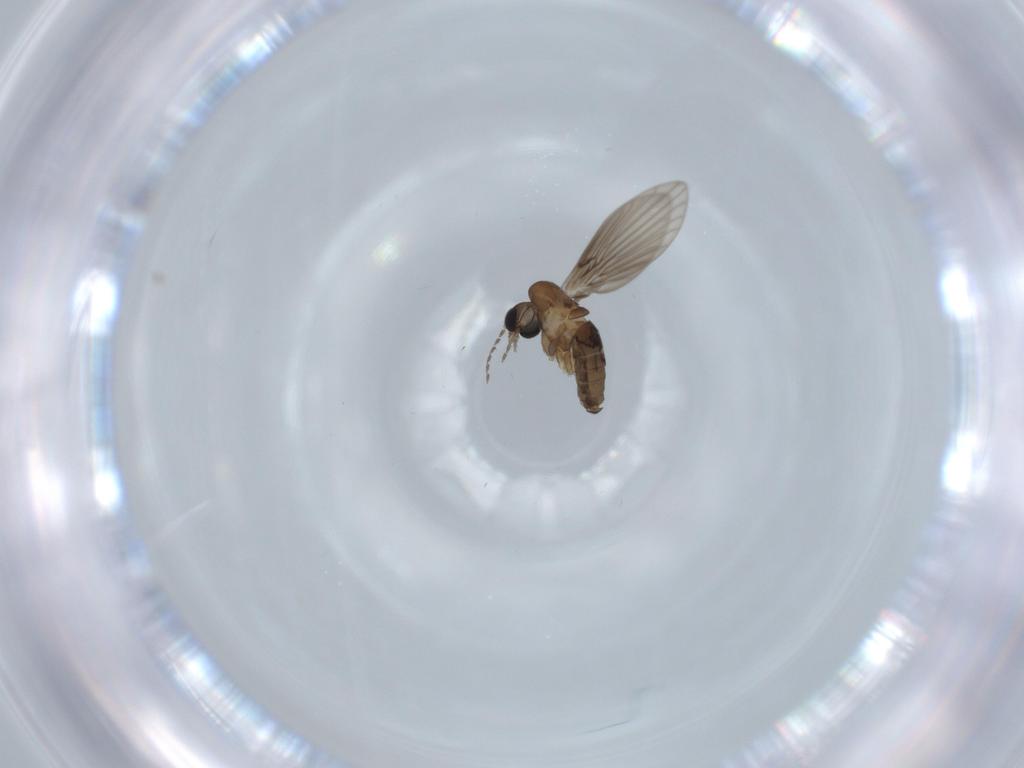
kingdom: Animalia
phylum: Arthropoda
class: Insecta
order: Diptera
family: Psychodidae
